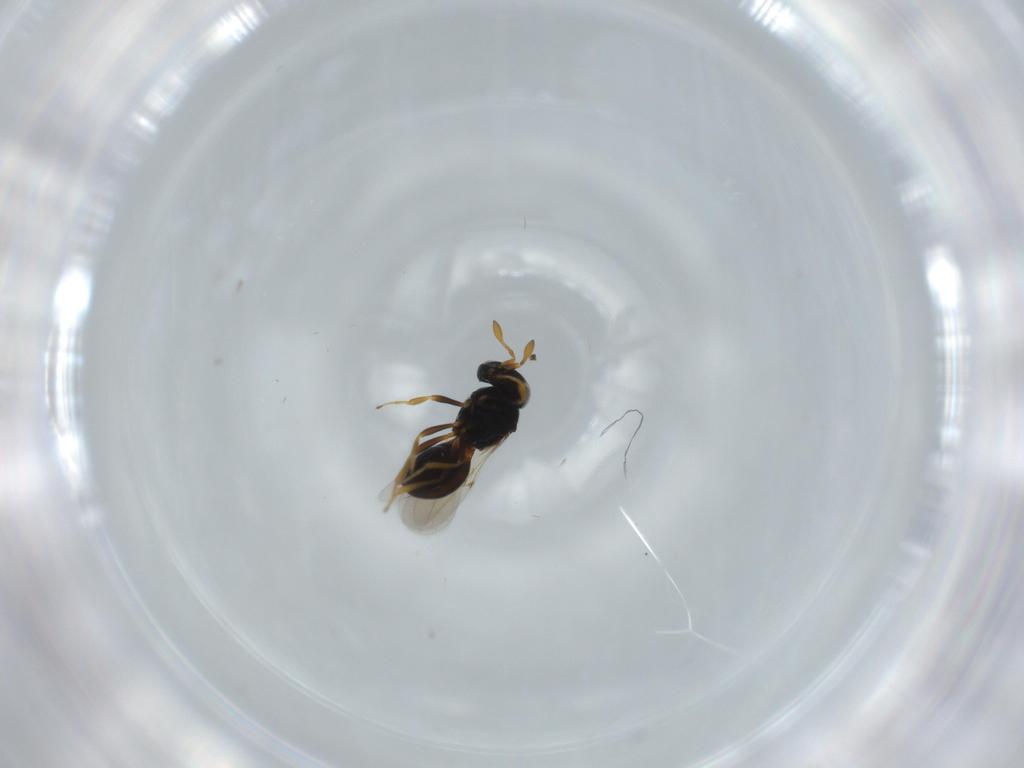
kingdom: Animalia
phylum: Arthropoda
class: Insecta
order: Hymenoptera
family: Scelionidae
